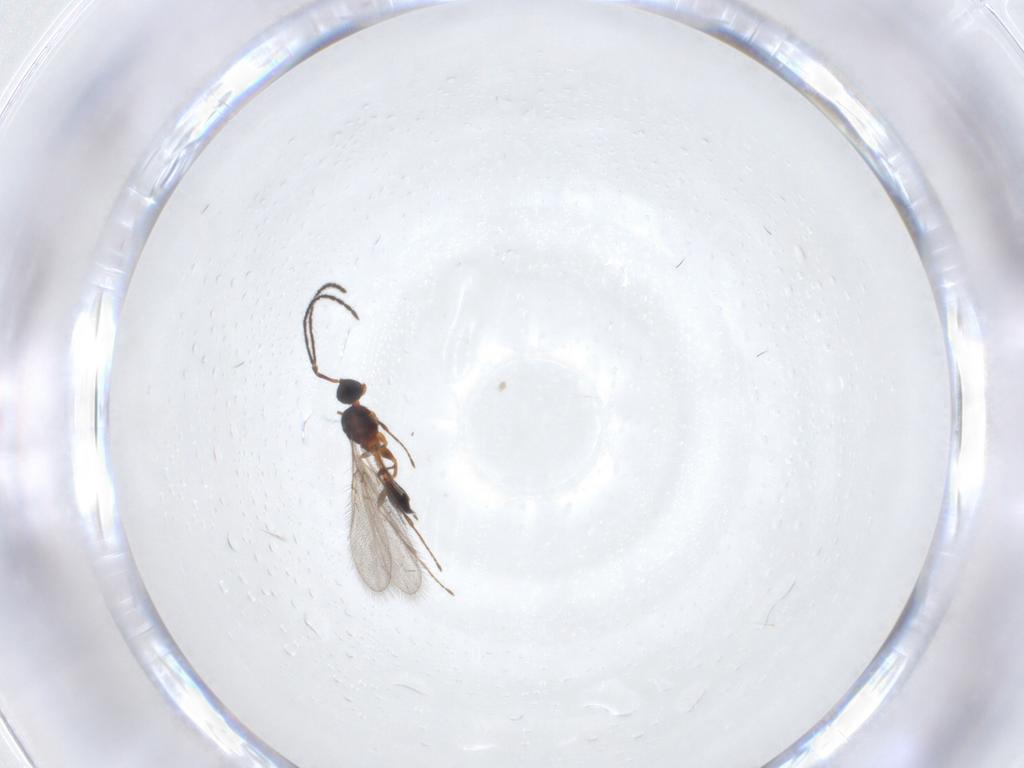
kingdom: Animalia
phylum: Arthropoda
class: Insecta
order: Hymenoptera
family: Diapriidae
